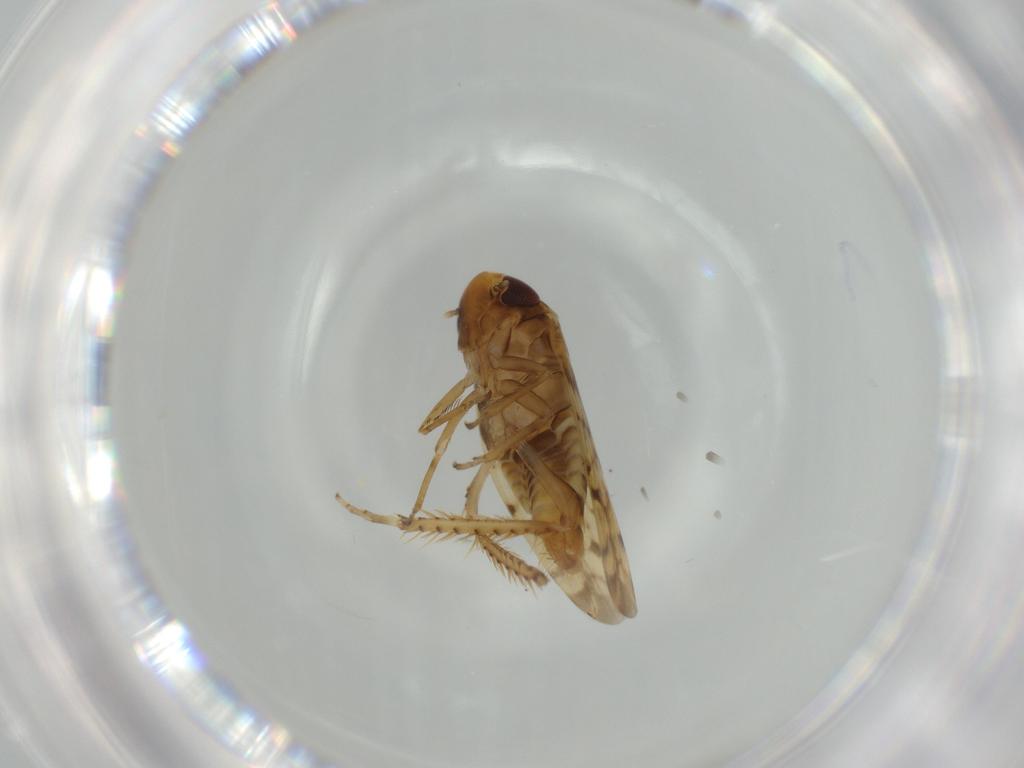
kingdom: Animalia
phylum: Arthropoda
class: Insecta
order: Hemiptera
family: Cicadellidae
